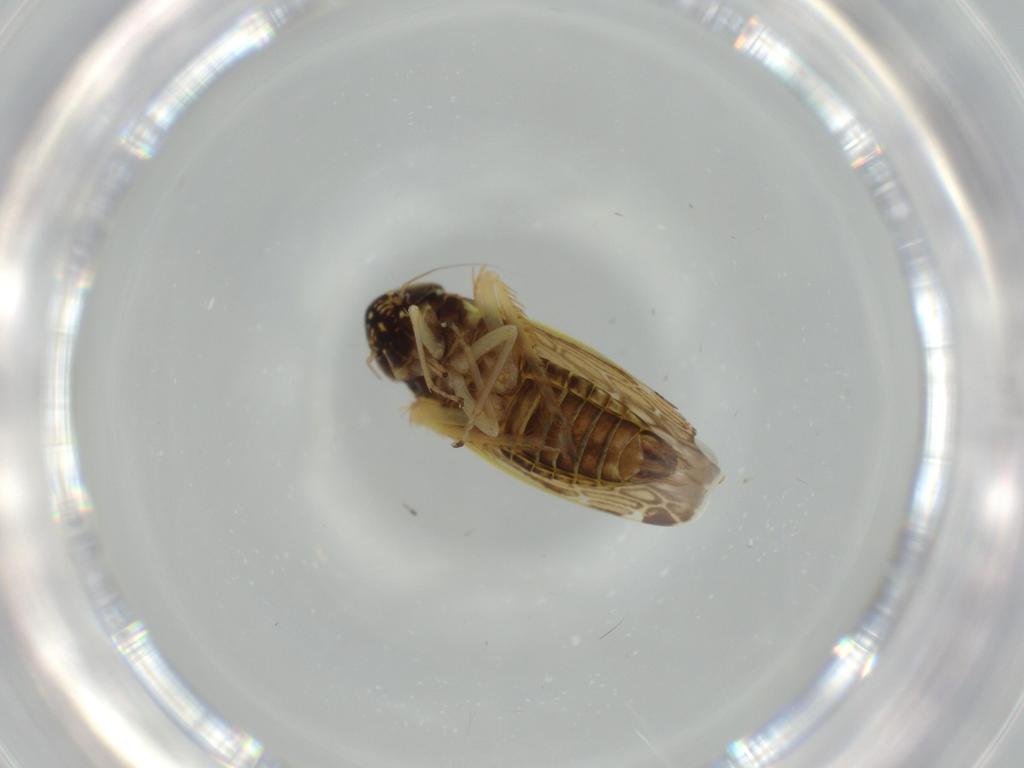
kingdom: Animalia
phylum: Arthropoda
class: Insecta
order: Hemiptera
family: Cicadellidae
